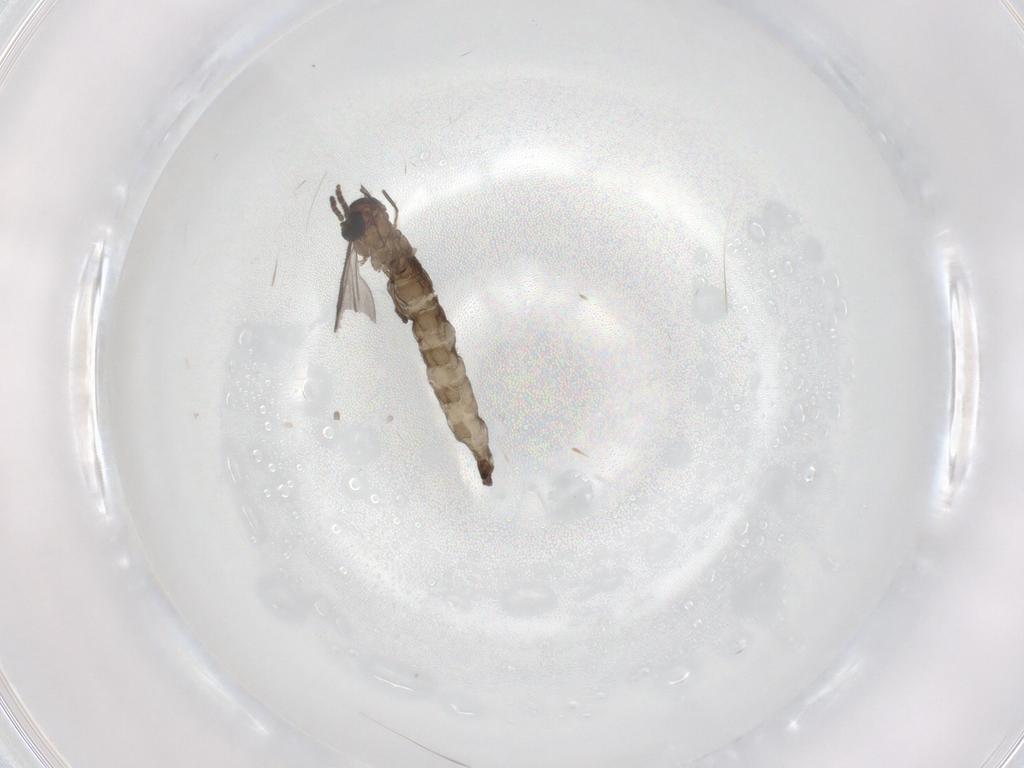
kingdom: Animalia
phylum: Arthropoda
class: Insecta
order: Diptera
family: Sciaridae
